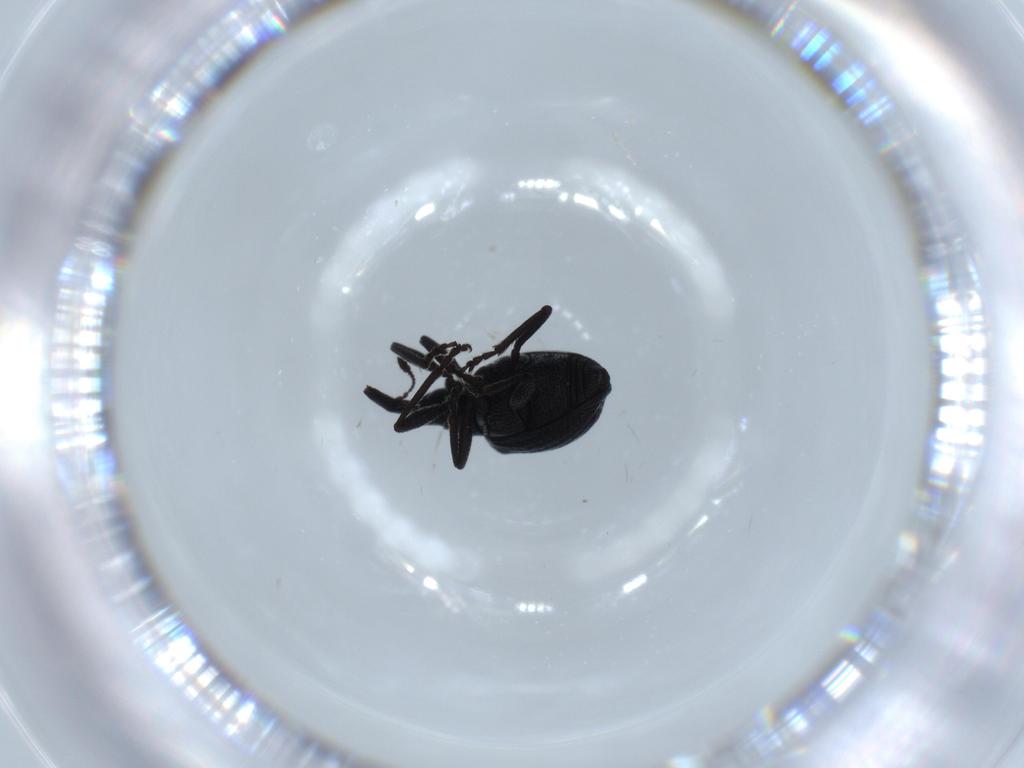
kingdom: Animalia
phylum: Arthropoda
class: Insecta
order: Coleoptera
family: Brentidae
